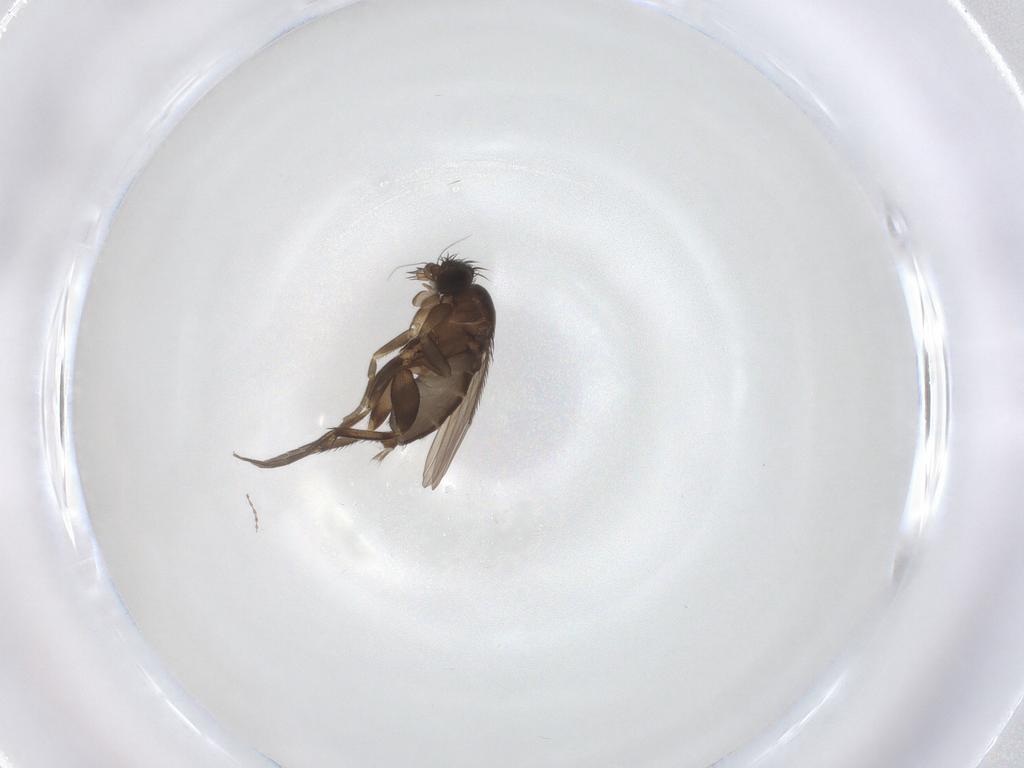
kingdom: Animalia
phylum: Arthropoda
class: Insecta
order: Diptera
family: Phoridae
